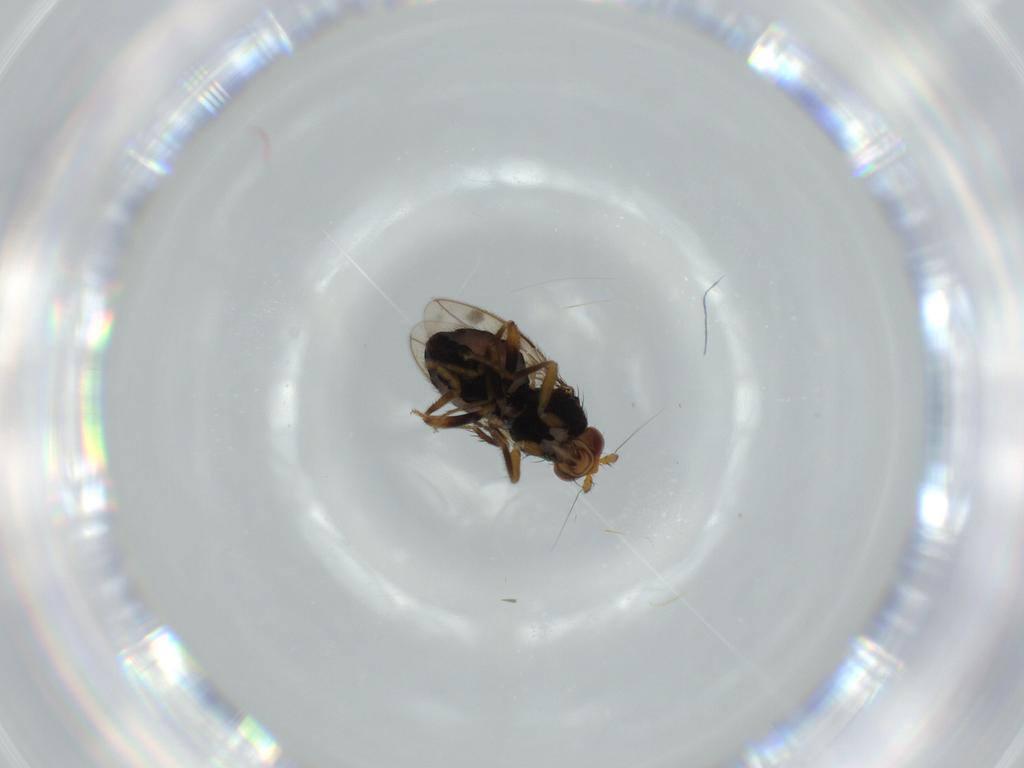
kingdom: Animalia
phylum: Arthropoda
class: Insecta
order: Diptera
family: Sphaeroceridae
